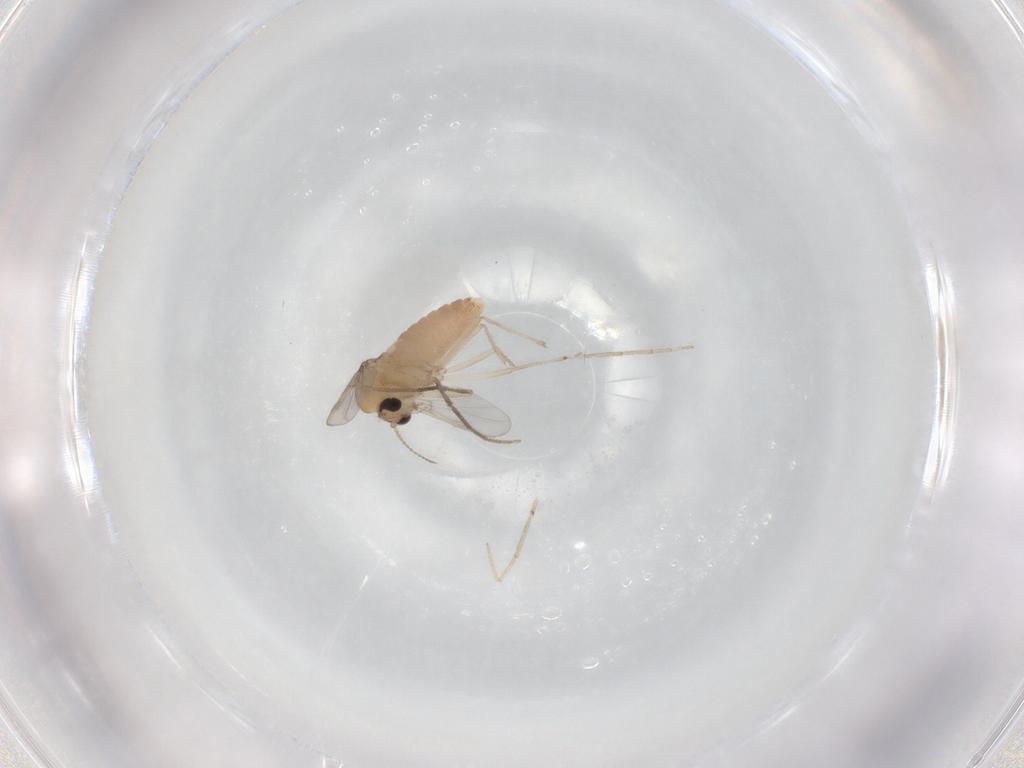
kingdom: Animalia
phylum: Arthropoda
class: Insecta
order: Diptera
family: Chironomidae
